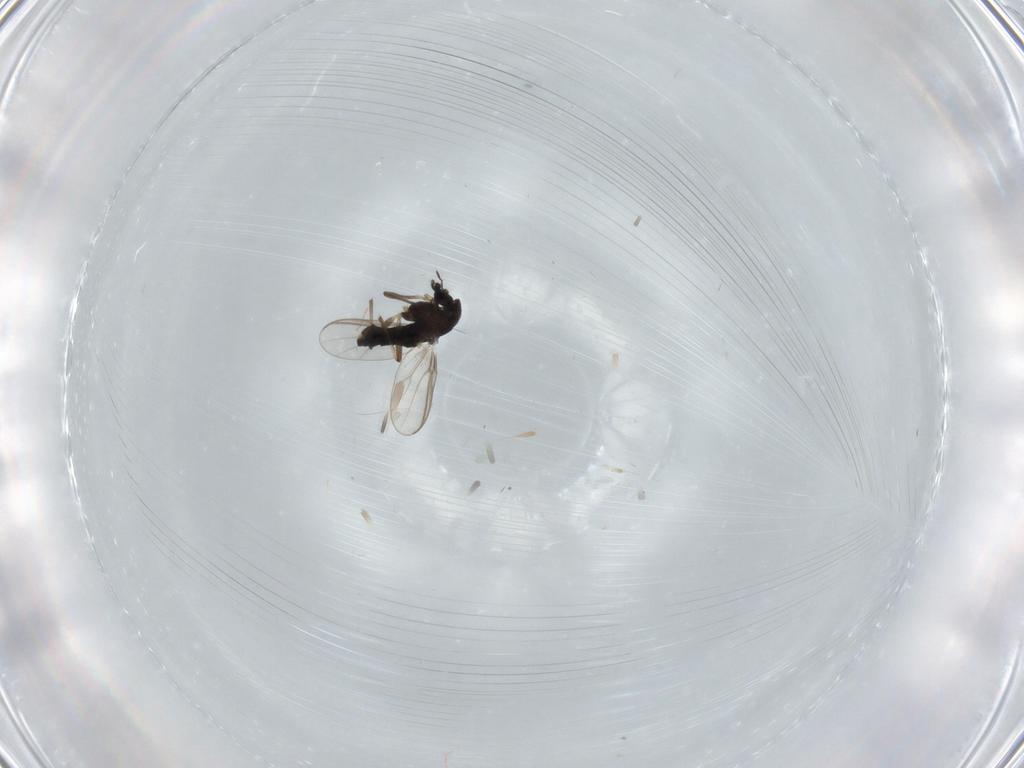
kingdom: Animalia
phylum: Arthropoda
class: Insecta
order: Diptera
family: Chironomidae
